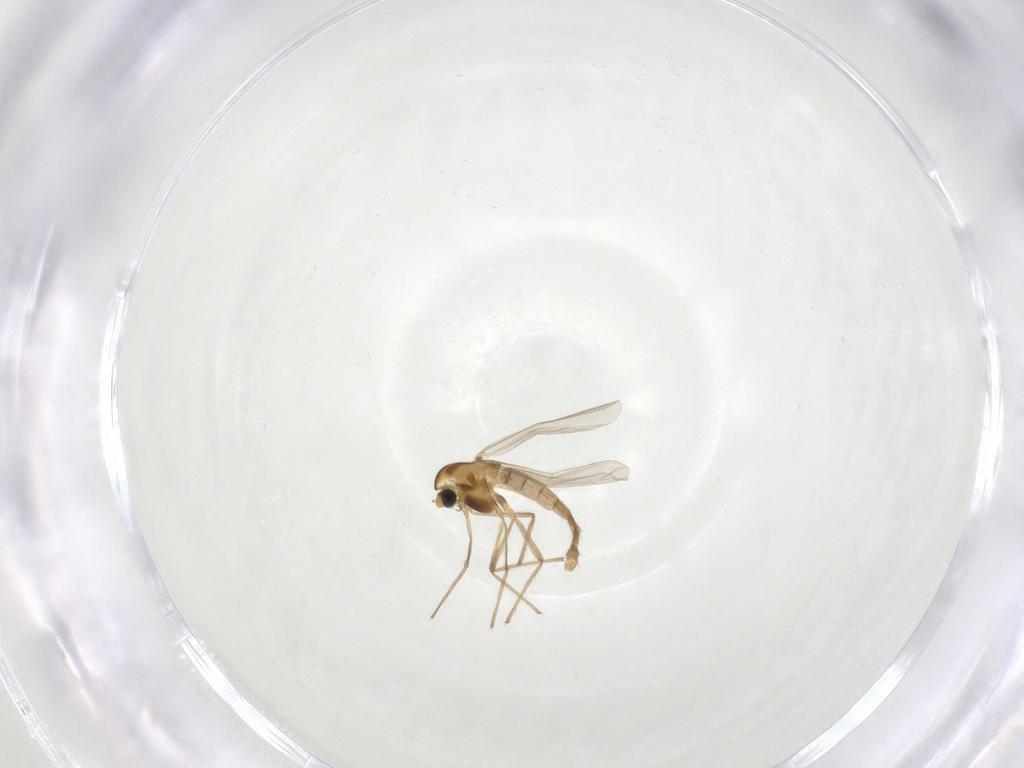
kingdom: Animalia
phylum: Arthropoda
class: Insecta
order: Diptera
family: Chironomidae
